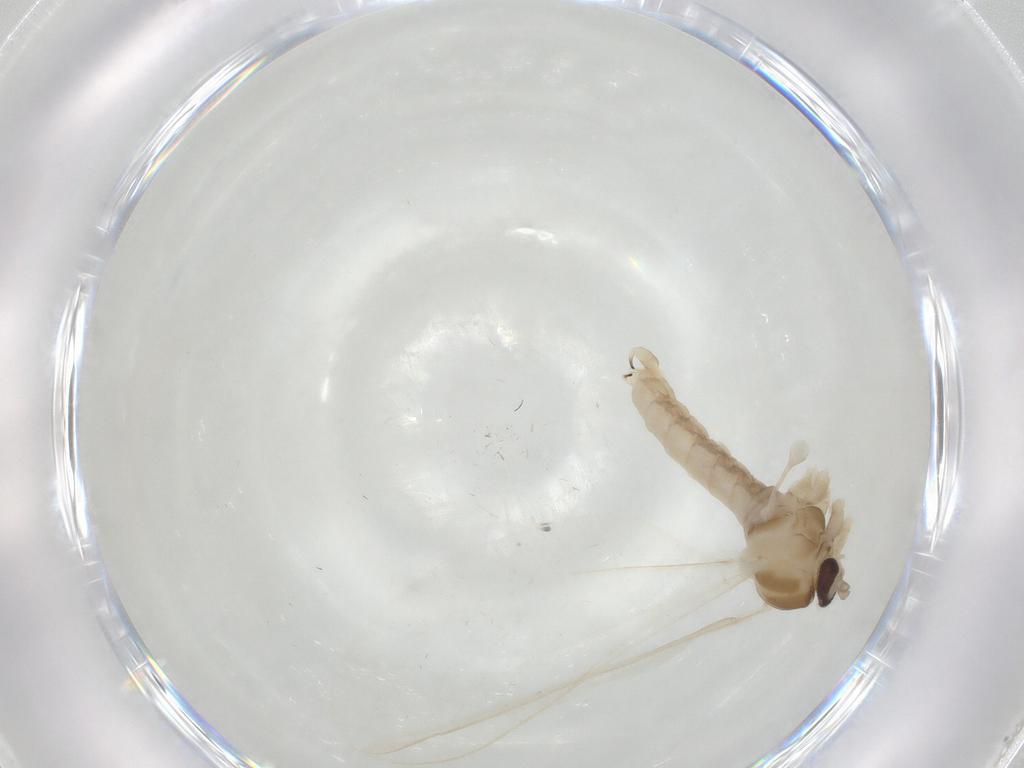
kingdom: Animalia
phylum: Arthropoda
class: Insecta
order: Diptera
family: Cecidomyiidae
